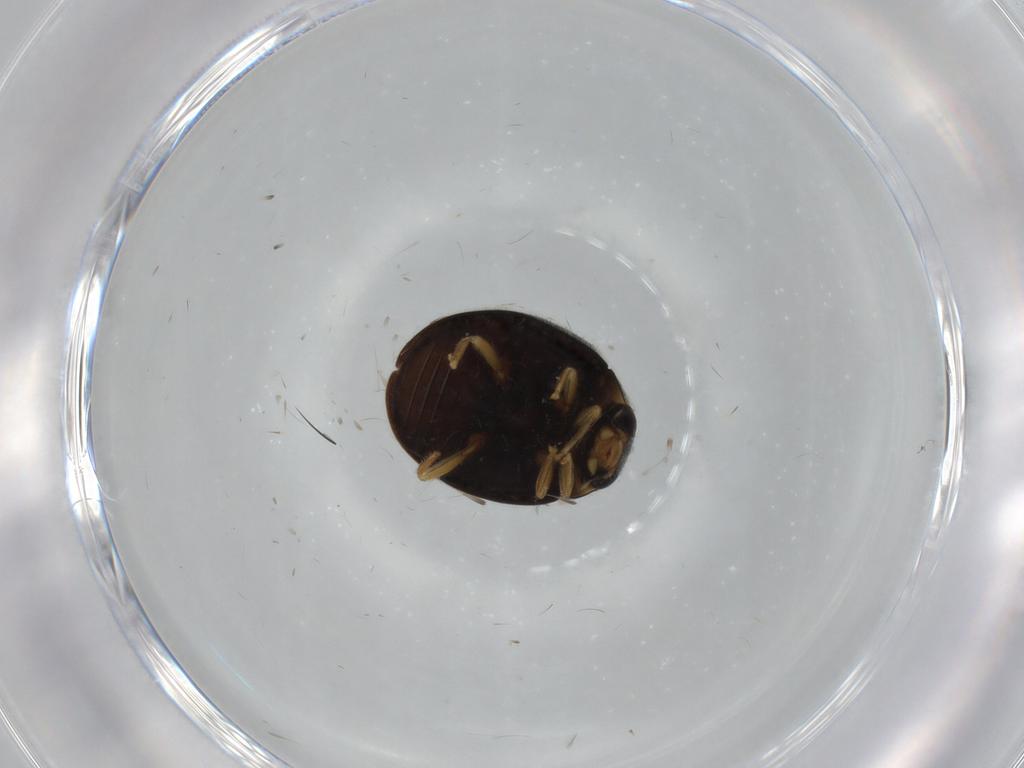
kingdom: Animalia
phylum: Arthropoda
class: Insecta
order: Coleoptera
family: Coccinellidae
